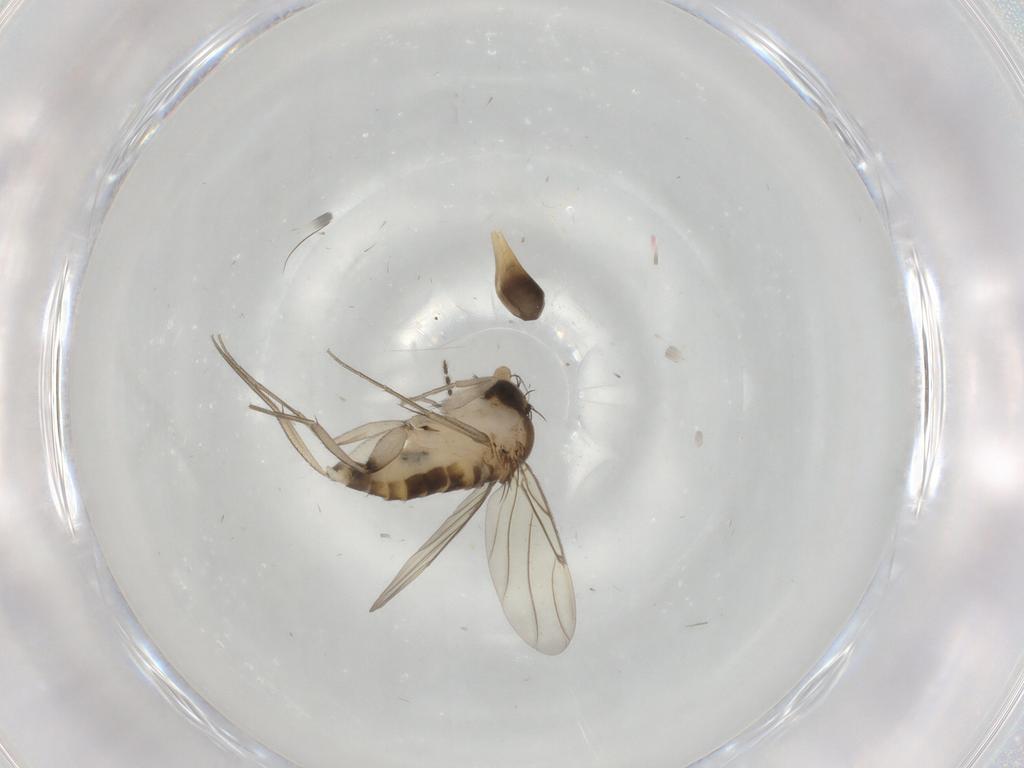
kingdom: Animalia
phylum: Arthropoda
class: Insecta
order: Diptera
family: Rhagionidae
